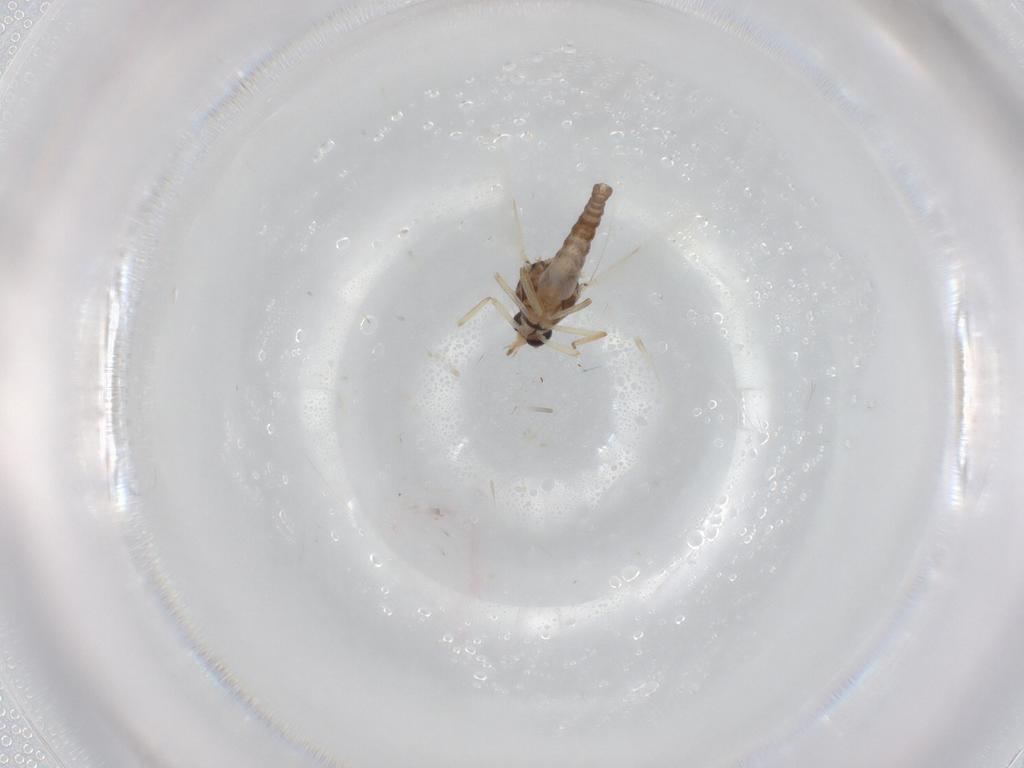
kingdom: Animalia
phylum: Arthropoda
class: Insecta
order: Diptera
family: Ceratopogonidae
